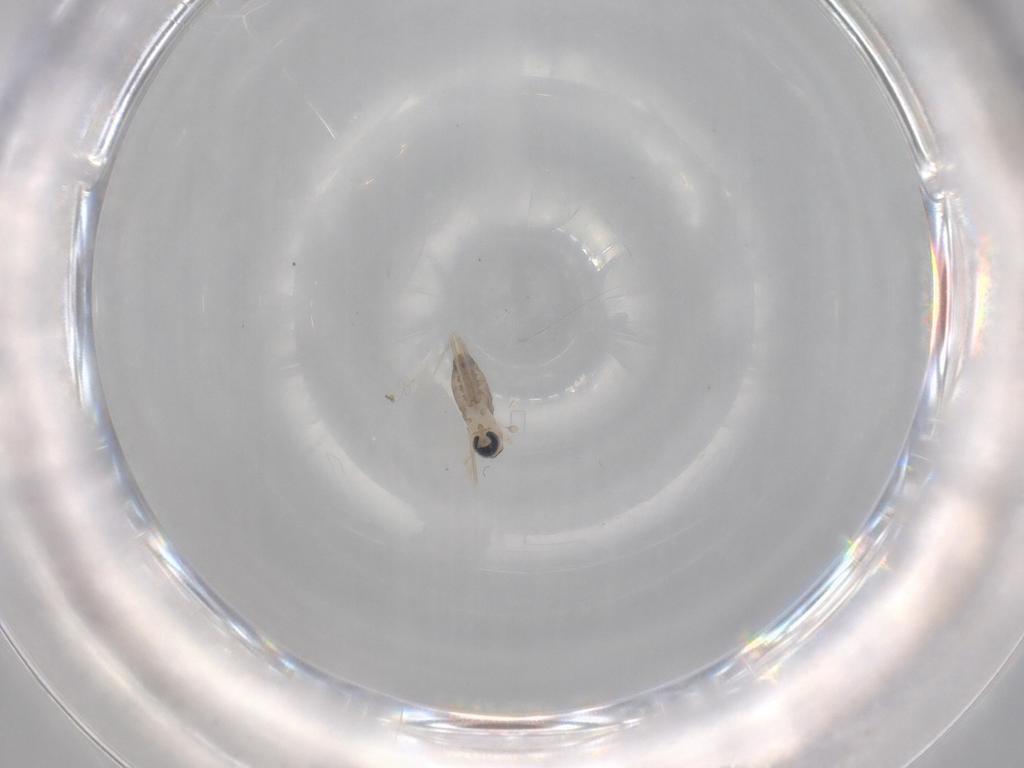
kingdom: Animalia
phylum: Arthropoda
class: Insecta
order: Diptera
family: Cecidomyiidae
